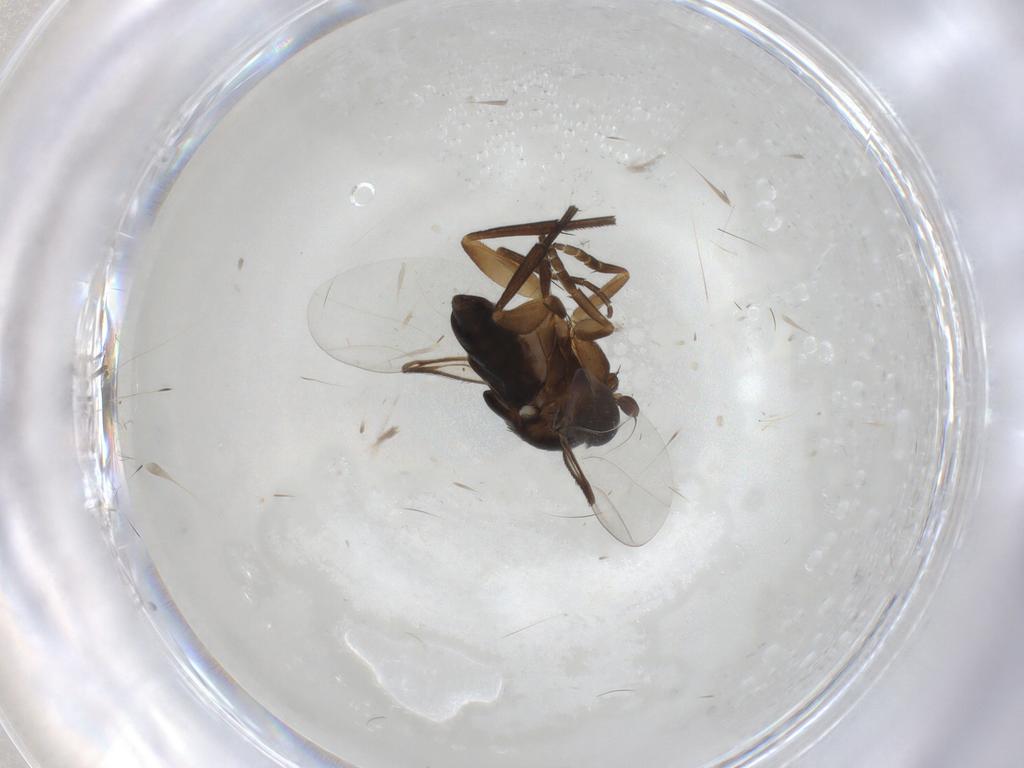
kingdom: Animalia
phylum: Arthropoda
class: Insecta
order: Diptera
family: Phoridae
